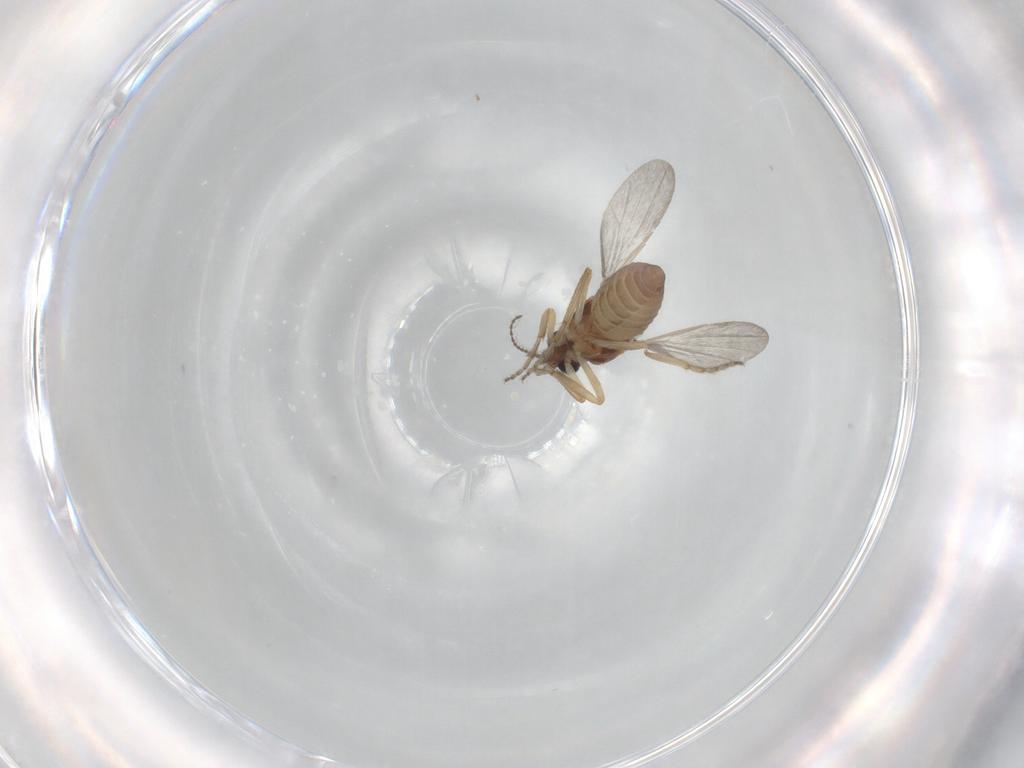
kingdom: Animalia
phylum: Arthropoda
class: Insecta
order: Diptera
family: Ceratopogonidae
